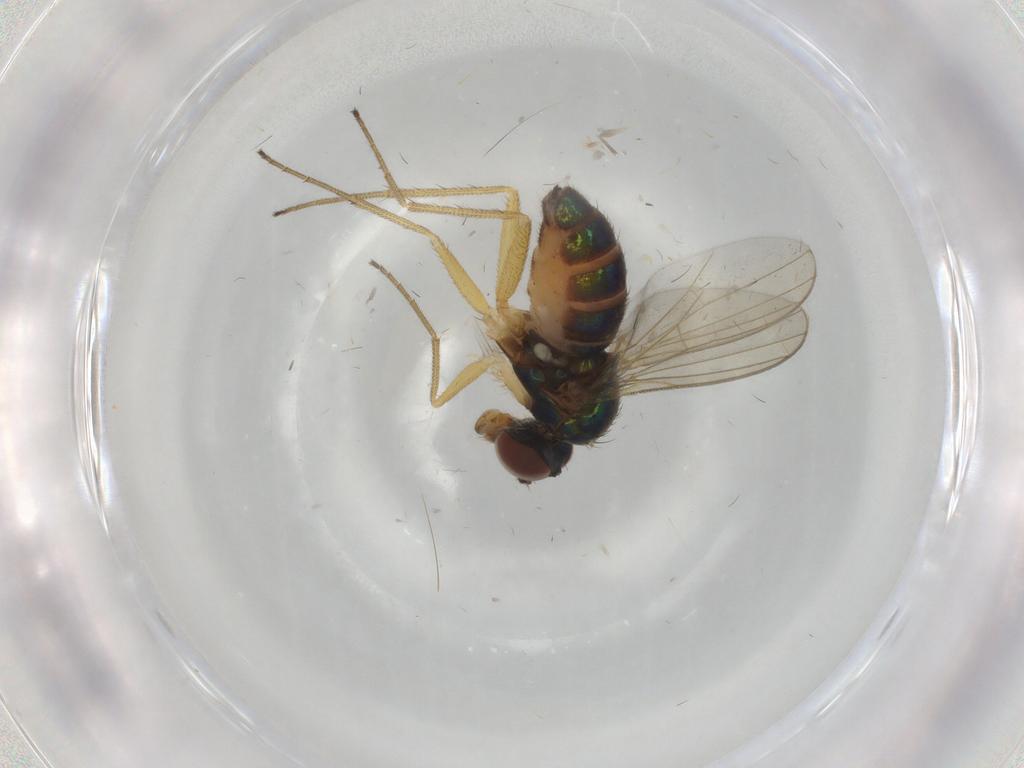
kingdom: Animalia
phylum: Arthropoda
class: Insecta
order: Diptera
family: Dolichopodidae
